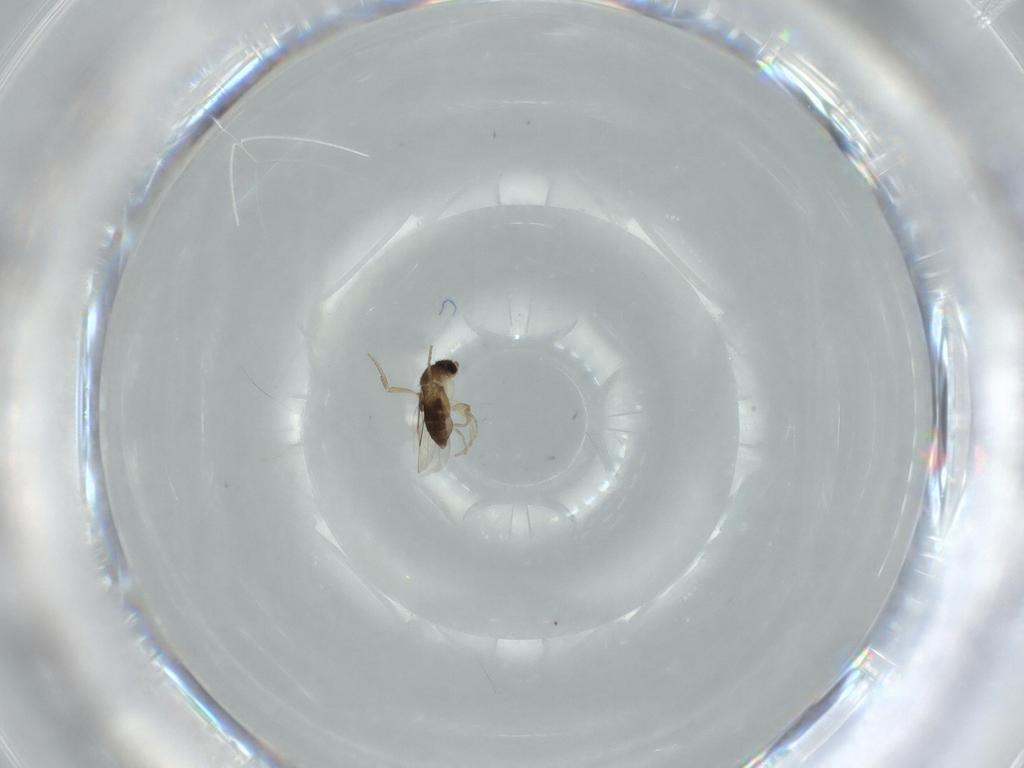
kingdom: Animalia
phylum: Arthropoda
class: Insecta
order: Diptera
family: Phoridae
